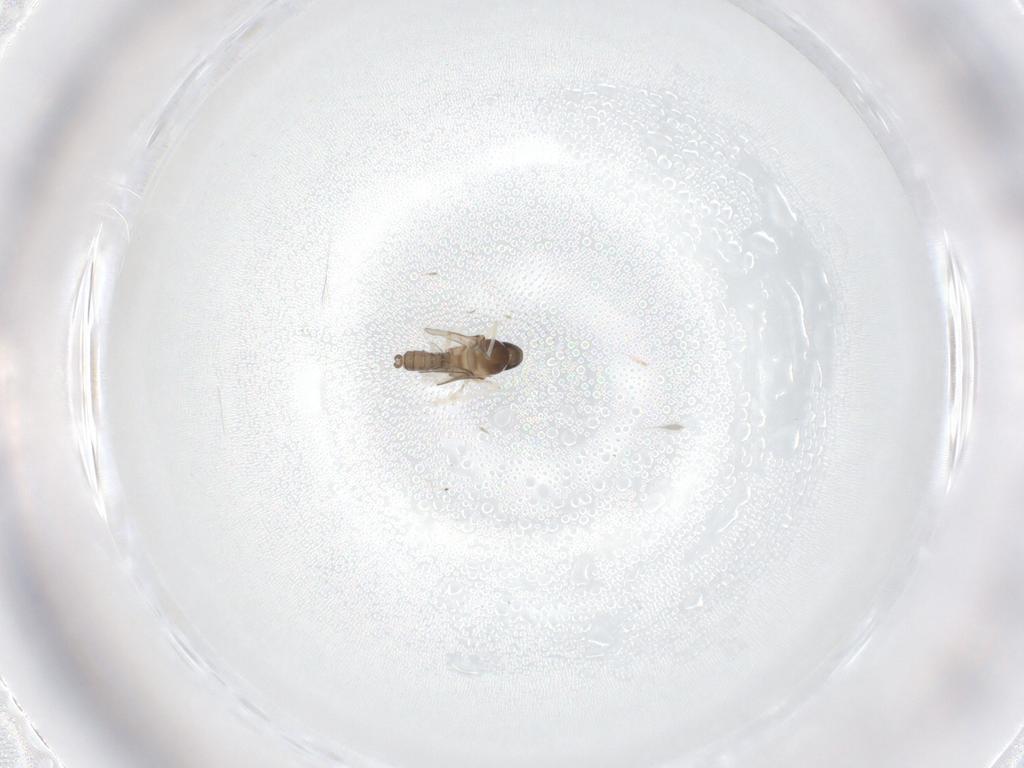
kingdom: Animalia
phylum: Arthropoda
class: Insecta
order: Diptera
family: Cecidomyiidae
